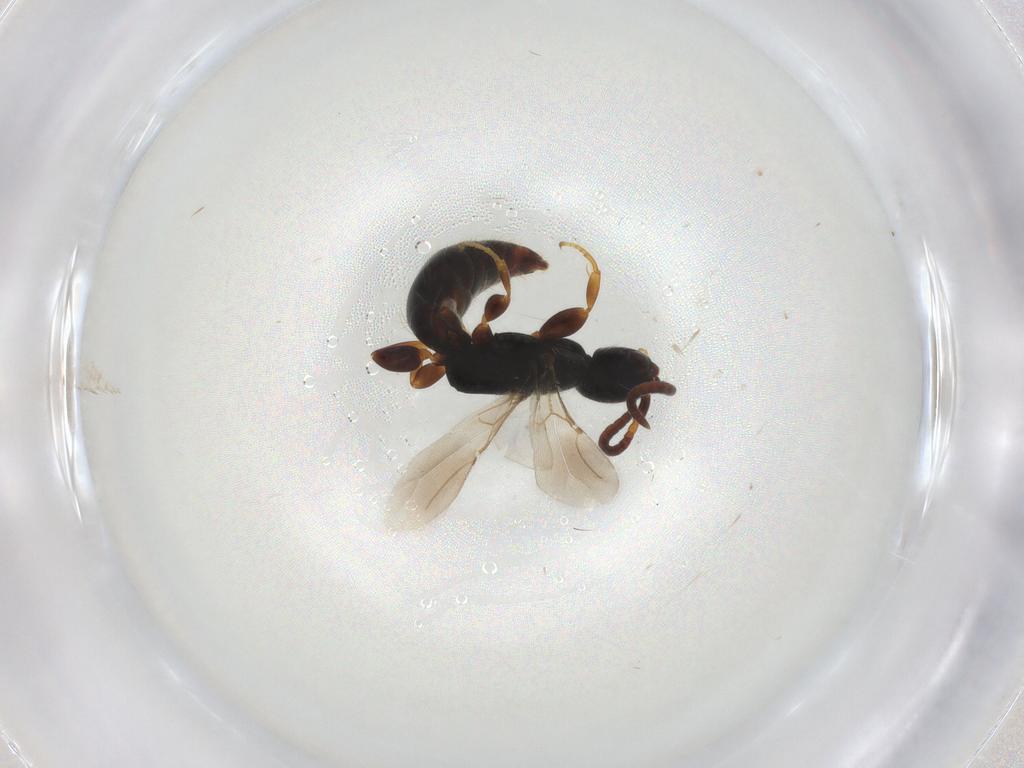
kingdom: Animalia
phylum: Arthropoda
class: Insecta
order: Hymenoptera
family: Bethylidae
